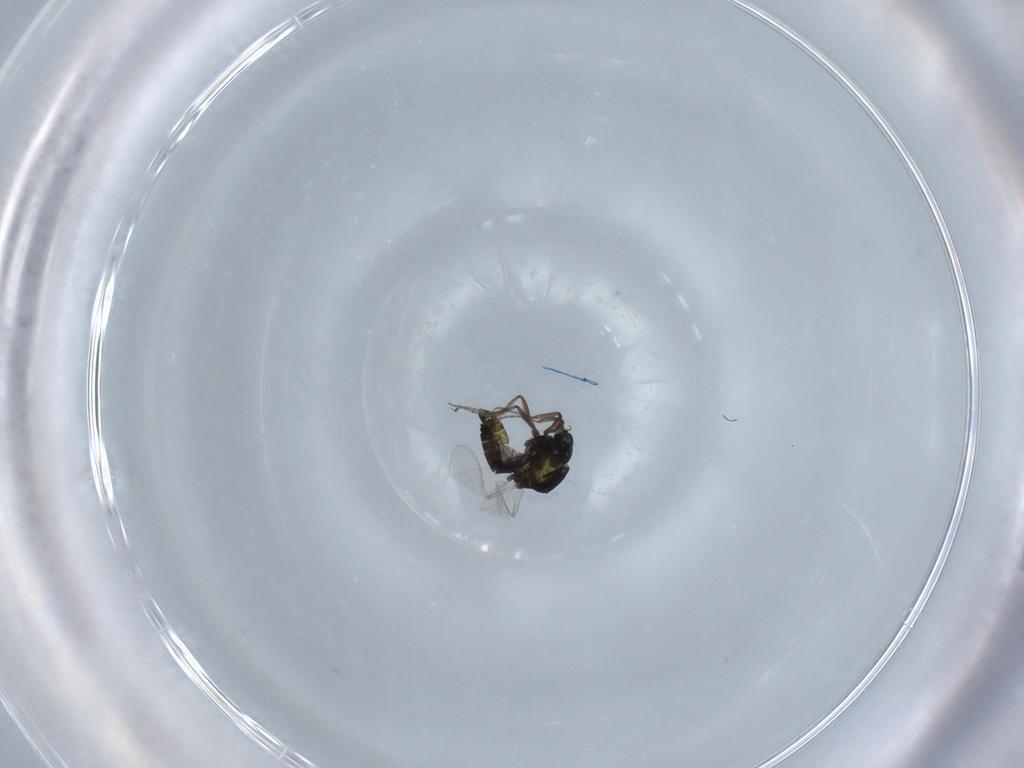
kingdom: Animalia
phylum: Arthropoda
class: Insecta
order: Diptera
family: Ceratopogonidae
